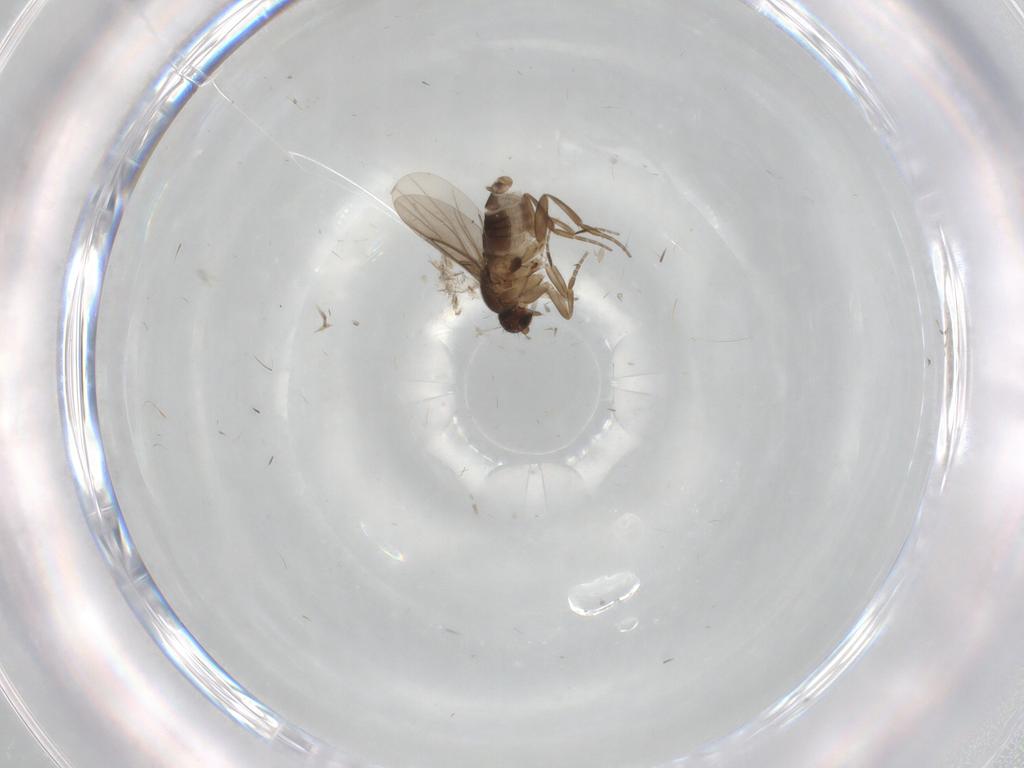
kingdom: Animalia
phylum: Arthropoda
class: Insecta
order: Diptera
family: Phoridae
